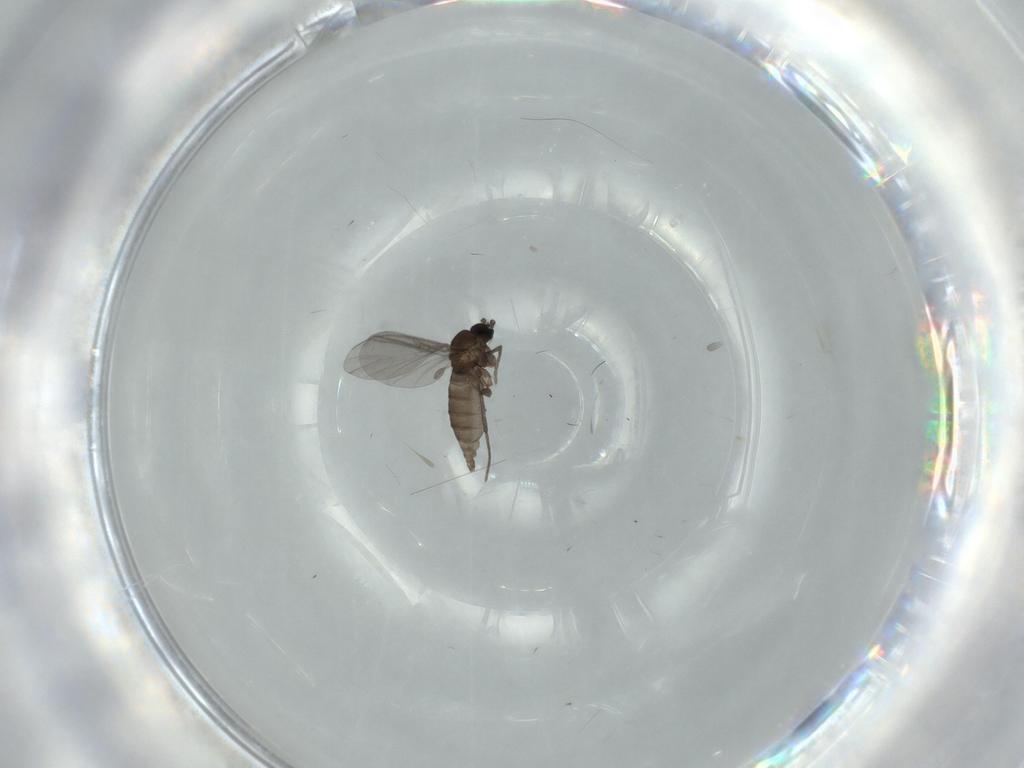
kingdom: Animalia
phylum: Arthropoda
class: Insecta
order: Diptera
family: Sciaridae
